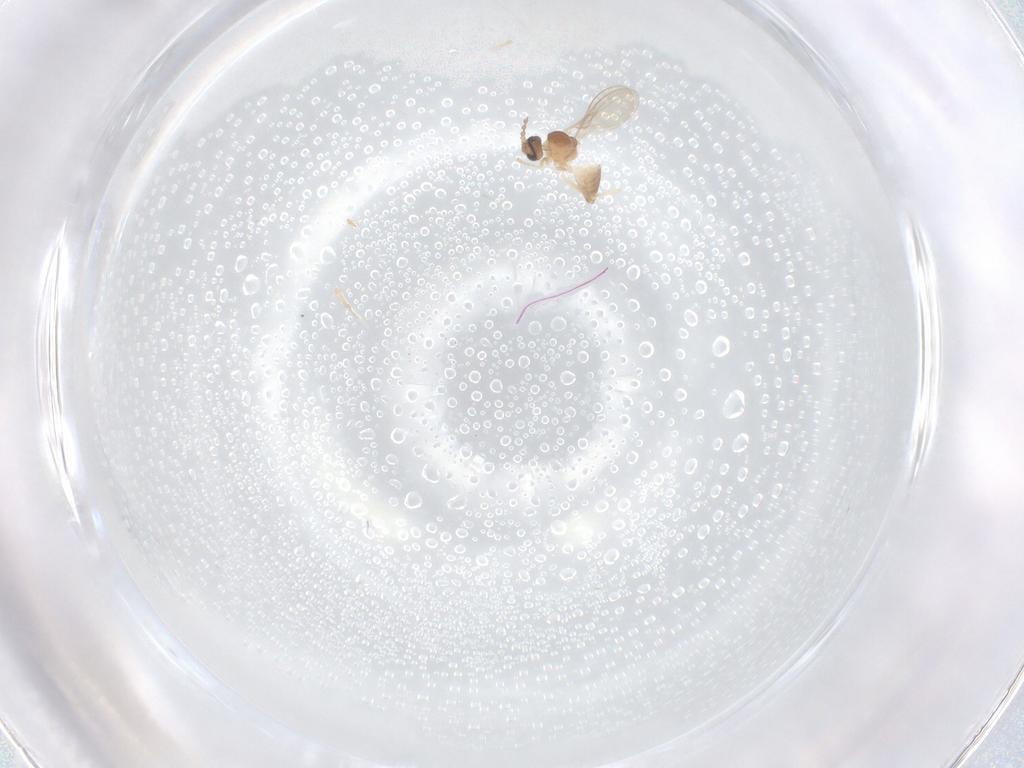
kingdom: Animalia
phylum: Arthropoda
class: Insecta
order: Diptera
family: Cecidomyiidae
